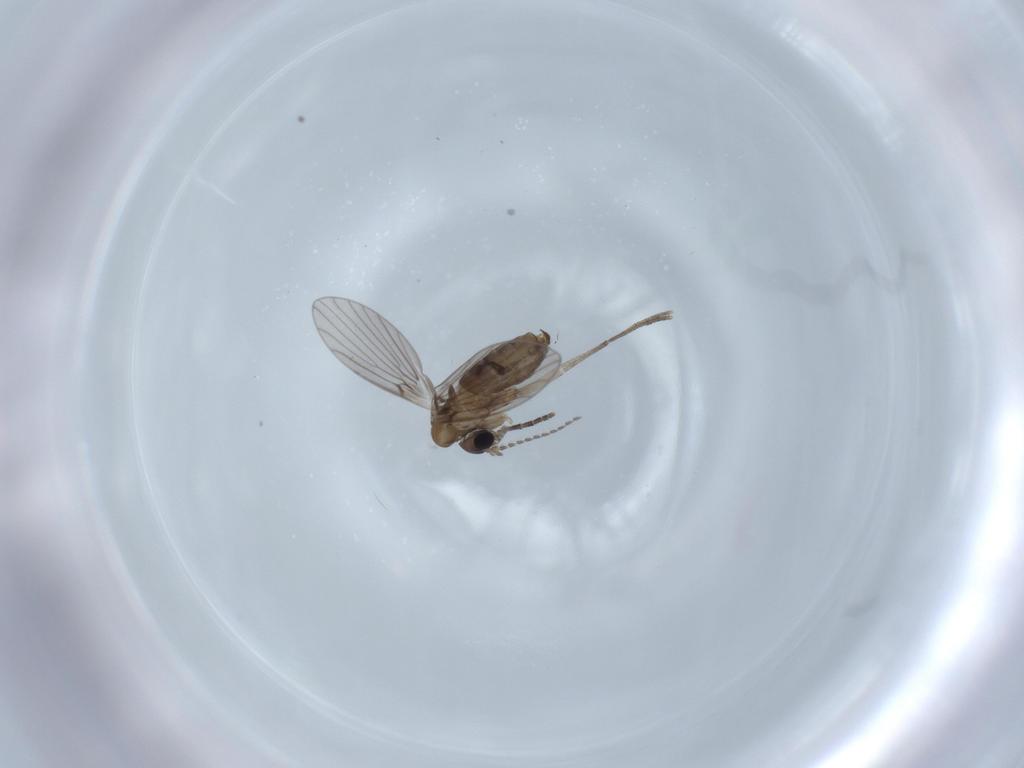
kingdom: Animalia
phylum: Arthropoda
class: Insecta
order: Diptera
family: Psychodidae
